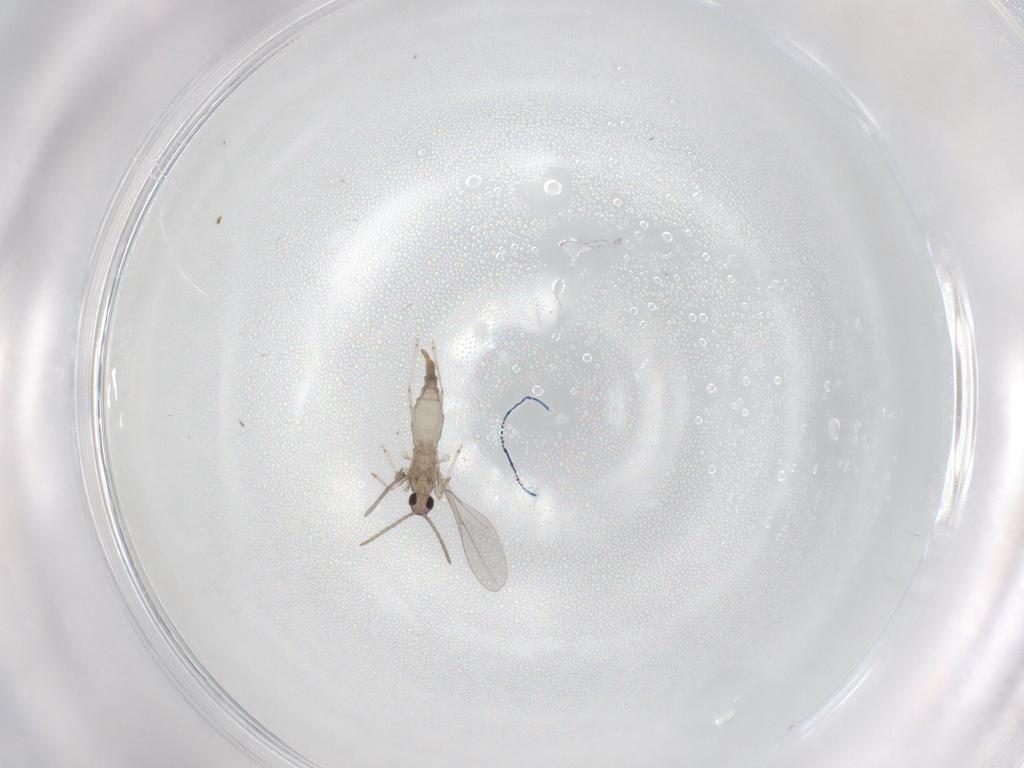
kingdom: Animalia
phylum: Arthropoda
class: Insecta
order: Diptera
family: Cecidomyiidae
